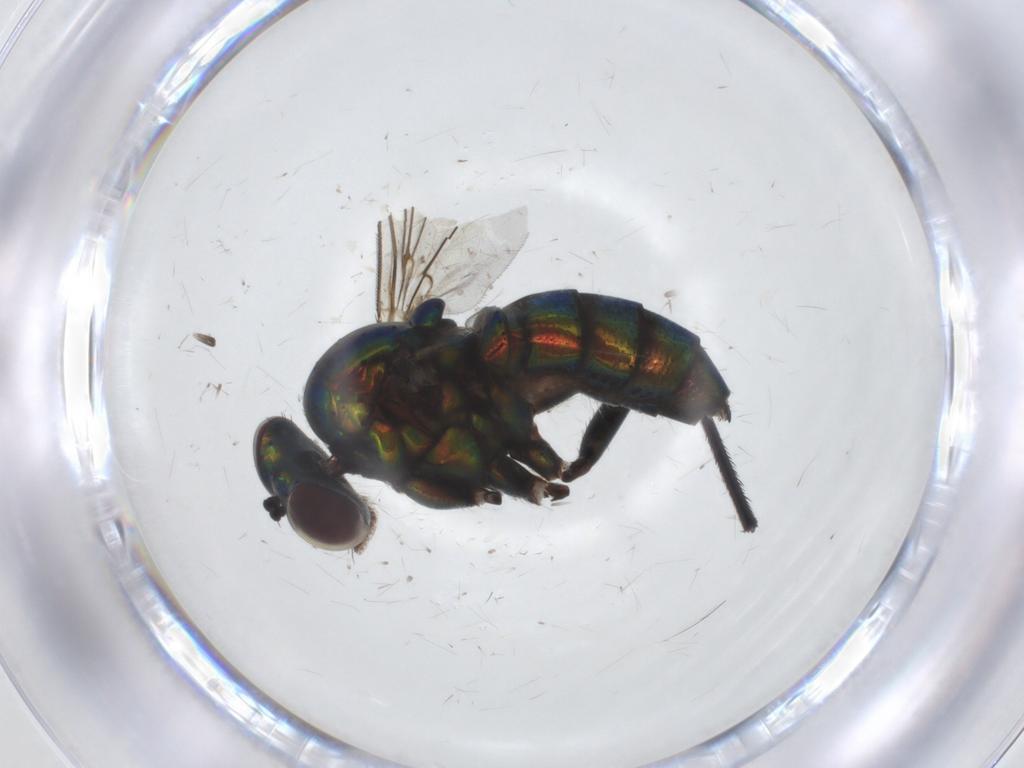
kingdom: Animalia
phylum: Arthropoda
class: Insecta
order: Diptera
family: Dolichopodidae
